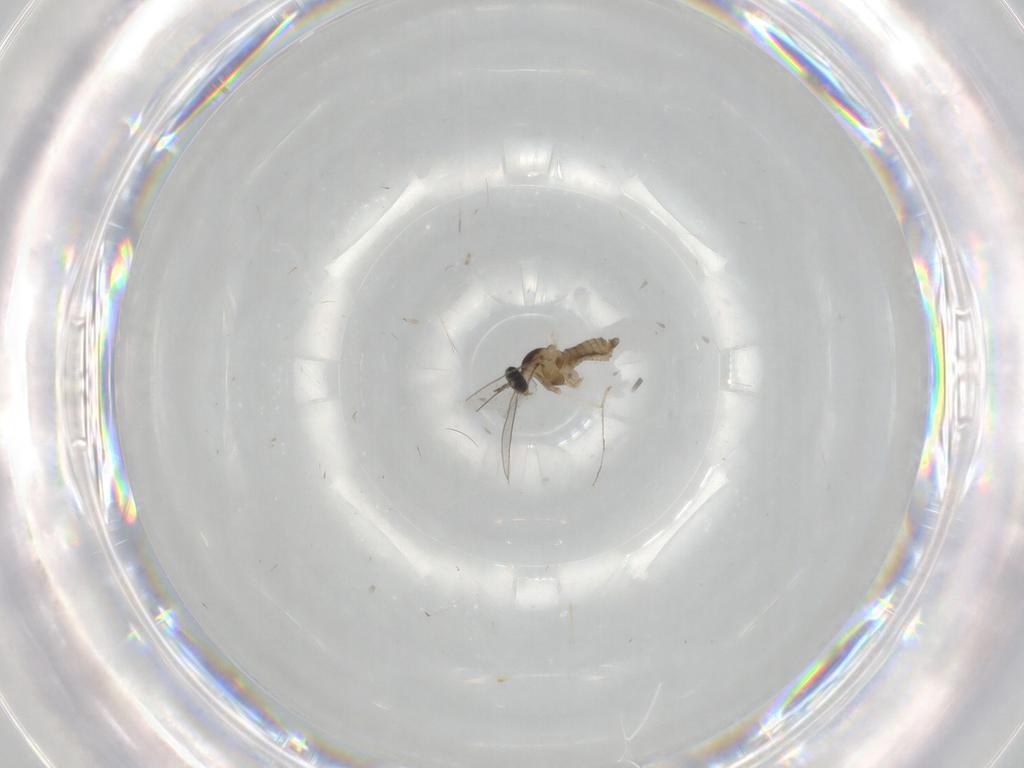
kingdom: Animalia
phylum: Arthropoda
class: Insecta
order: Diptera
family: Cecidomyiidae
